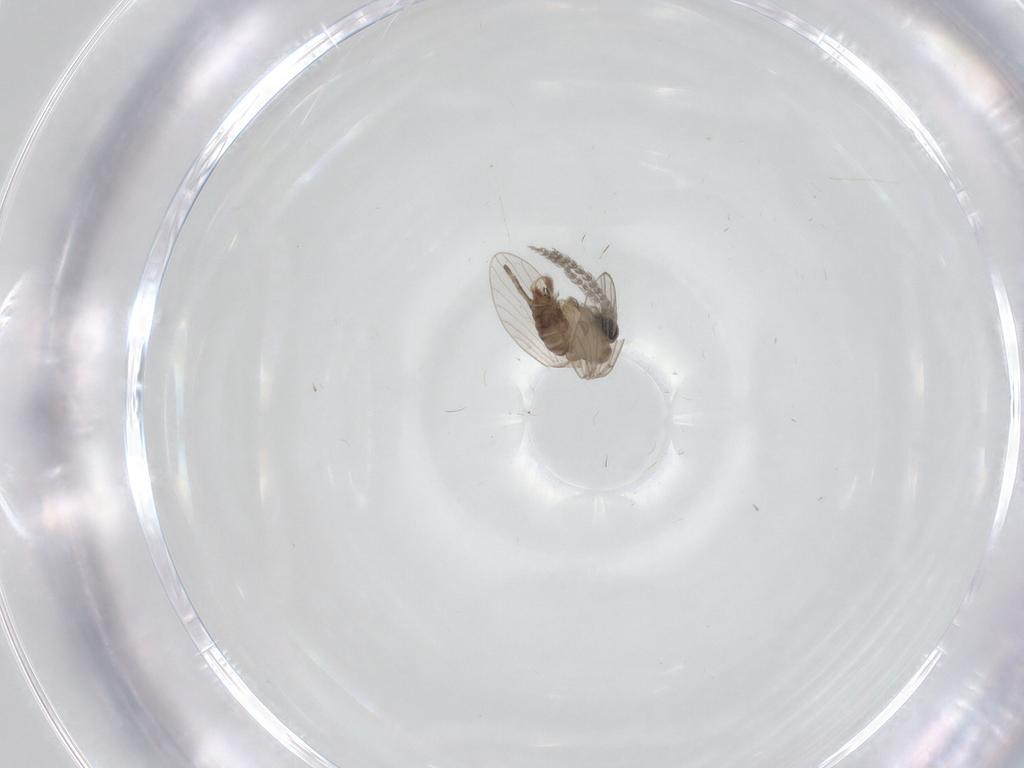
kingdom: Animalia
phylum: Arthropoda
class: Insecta
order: Diptera
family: Psychodidae
